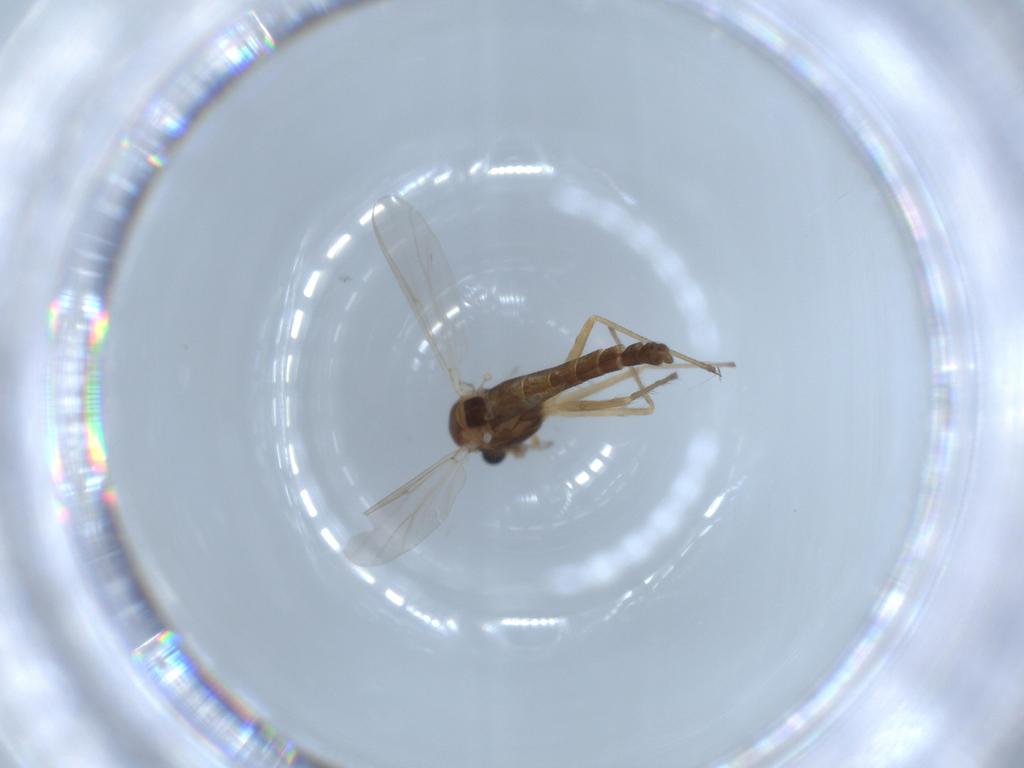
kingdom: Animalia
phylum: Arthropoda
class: Insecta
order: Diptera
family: Chironomidae
